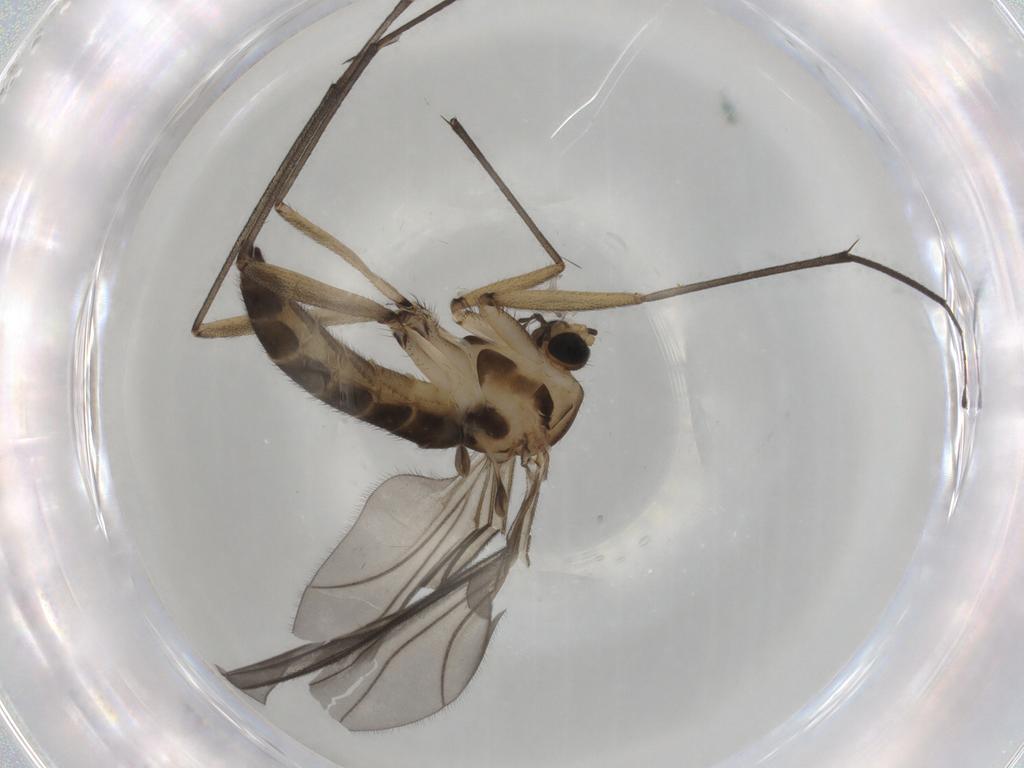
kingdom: Animalia
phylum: Arthropoda
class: Insecta
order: Diptera
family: Sciaridae
